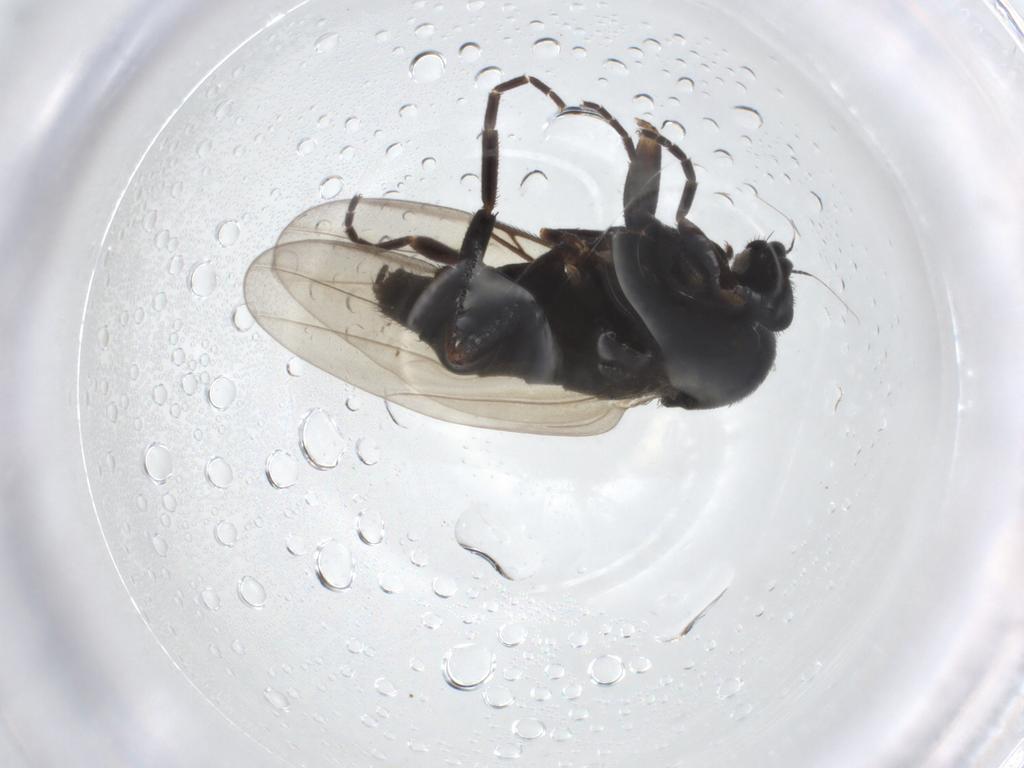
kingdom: Animalia
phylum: Arthropoda
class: Insecta
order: Diptera
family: Phoridae
